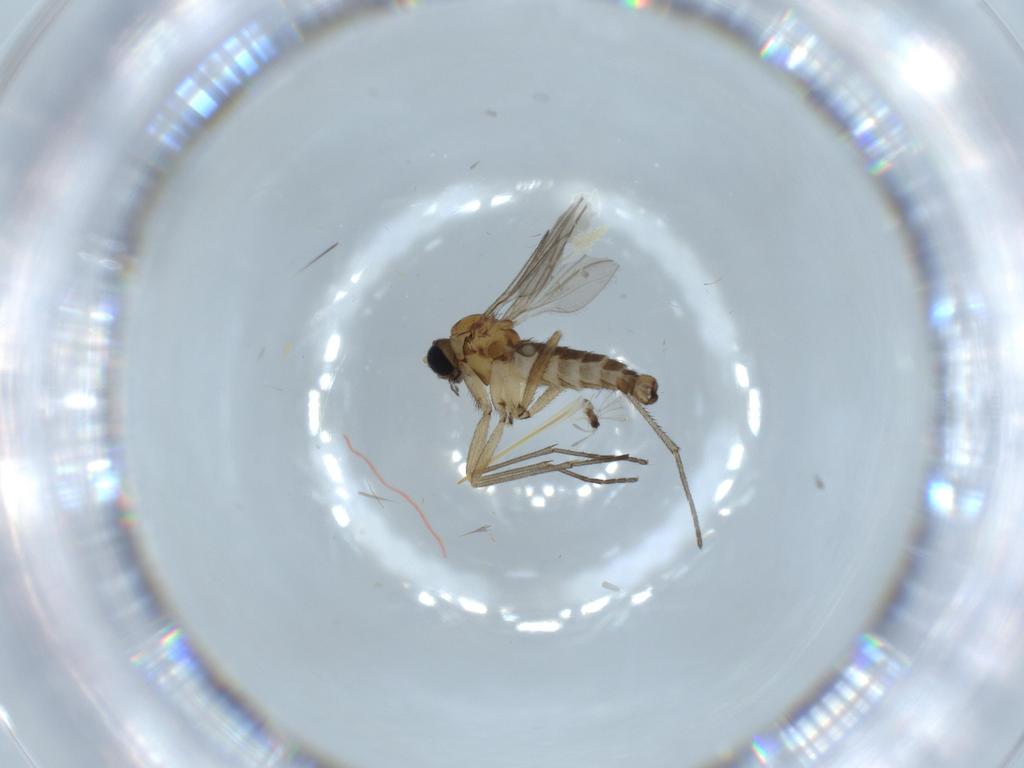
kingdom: Animalia
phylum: Arthropoda
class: Insecta
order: Diptera
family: Sciaridae
